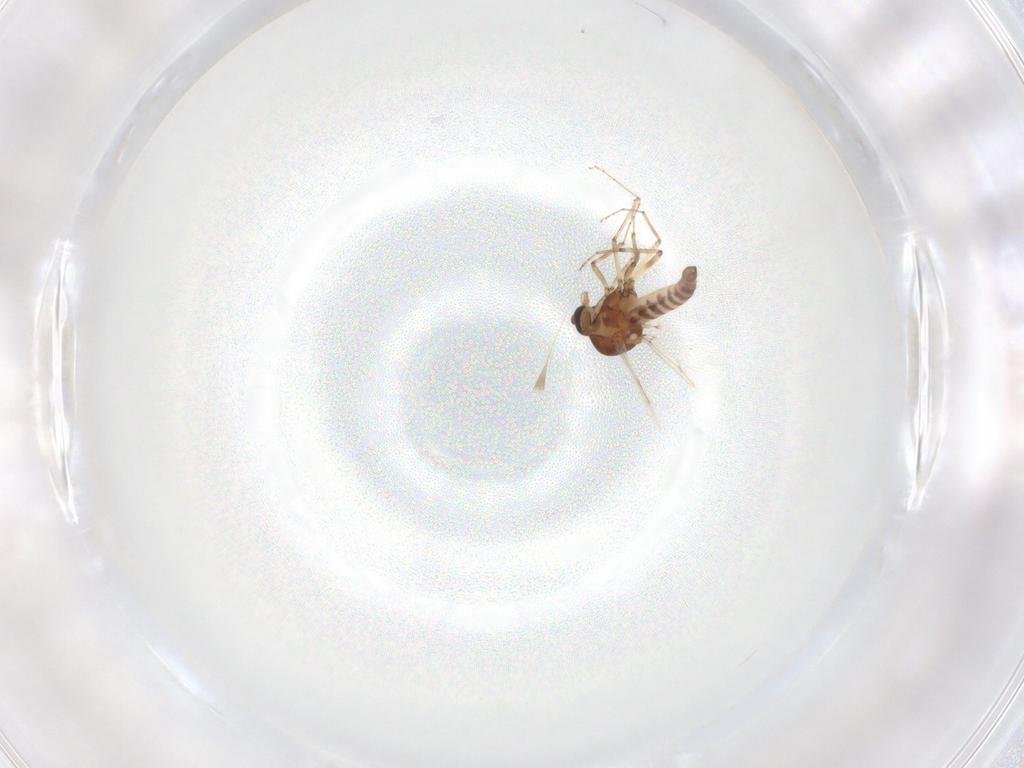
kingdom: Animalia
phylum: Arthropoda
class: Insecta
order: Diptera
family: Ceratopogonidae
